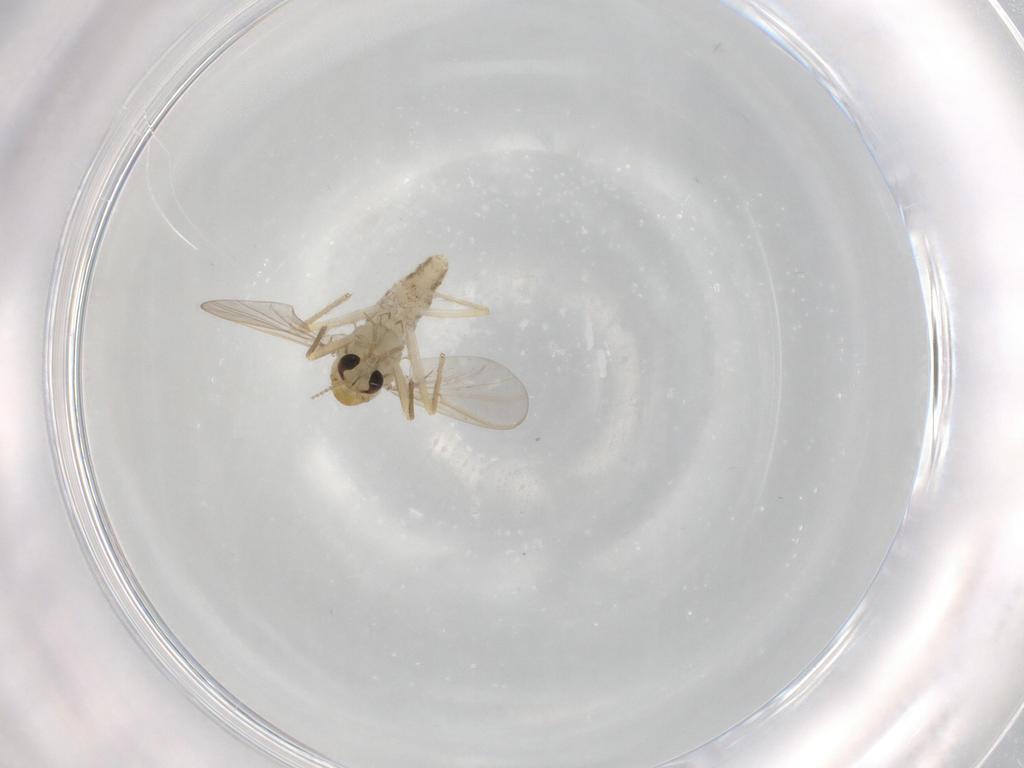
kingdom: Animalia
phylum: Arthropoda
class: Insecta
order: Diptera
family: Chironomidae
